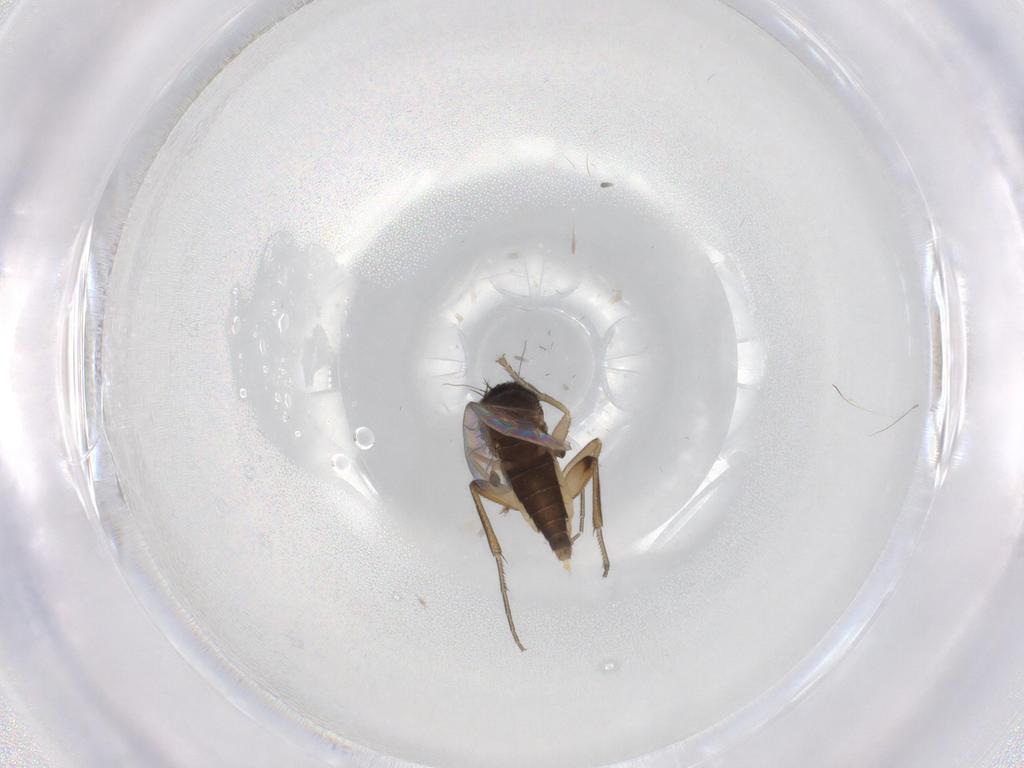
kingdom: Animalia
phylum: Arthropoda
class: Insecta
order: Diptera
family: Phoridae
